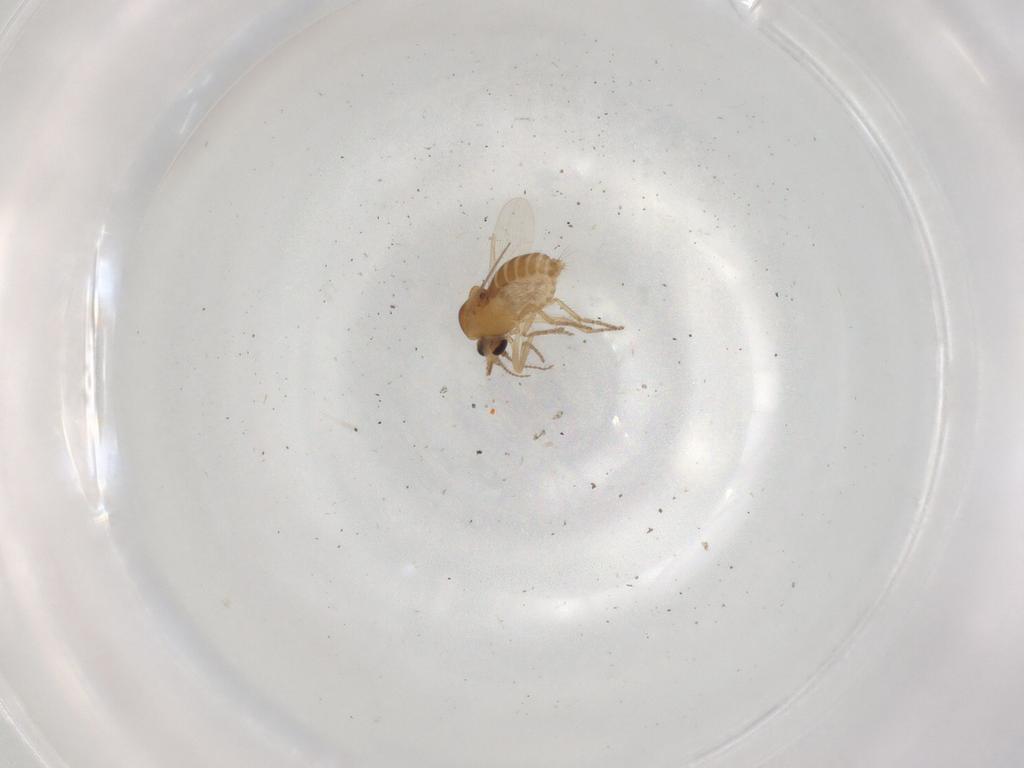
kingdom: Animalia
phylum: Arthropoda
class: Insecta
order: Diptera
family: Ceratopogonidae
